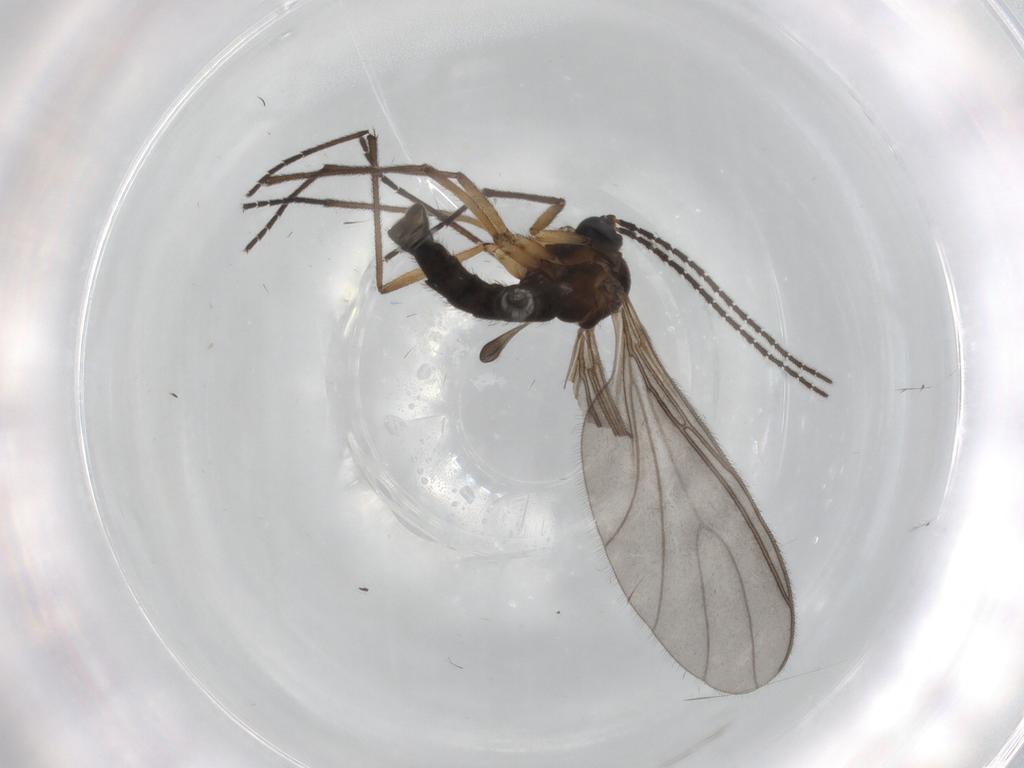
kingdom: Animalia
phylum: Arthropoda
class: Insecta
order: Diptera
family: Sciaridae
